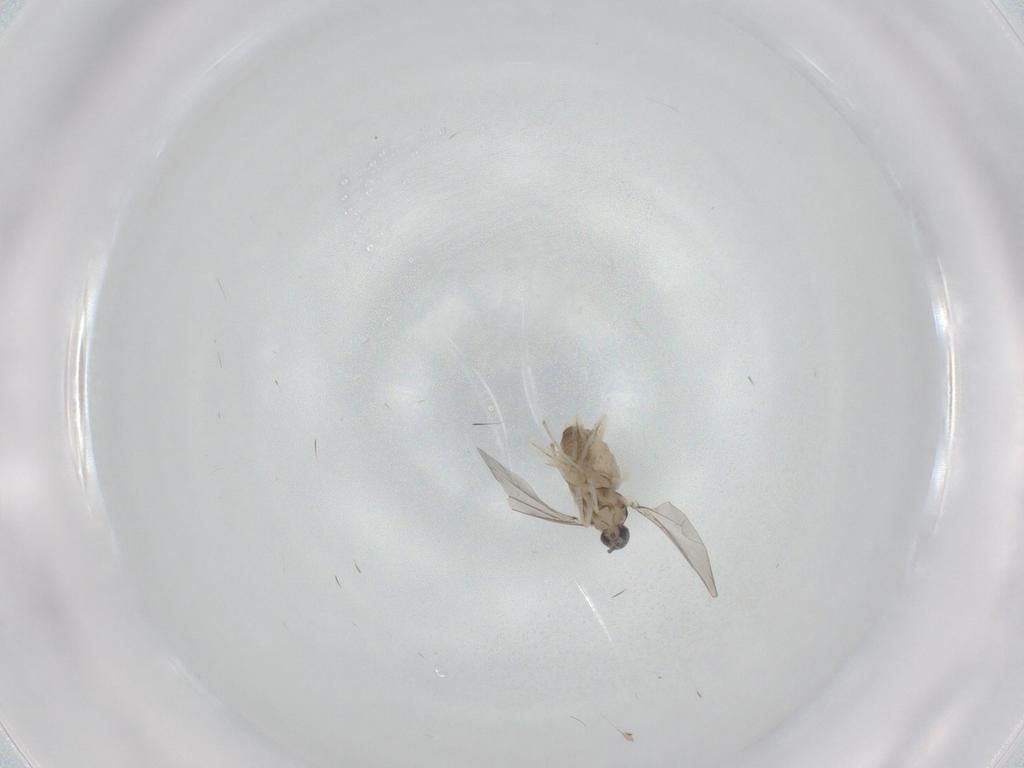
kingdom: Animalia
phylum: Arthropoda
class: Insecta
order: Diptera
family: Cecidomyiidae
